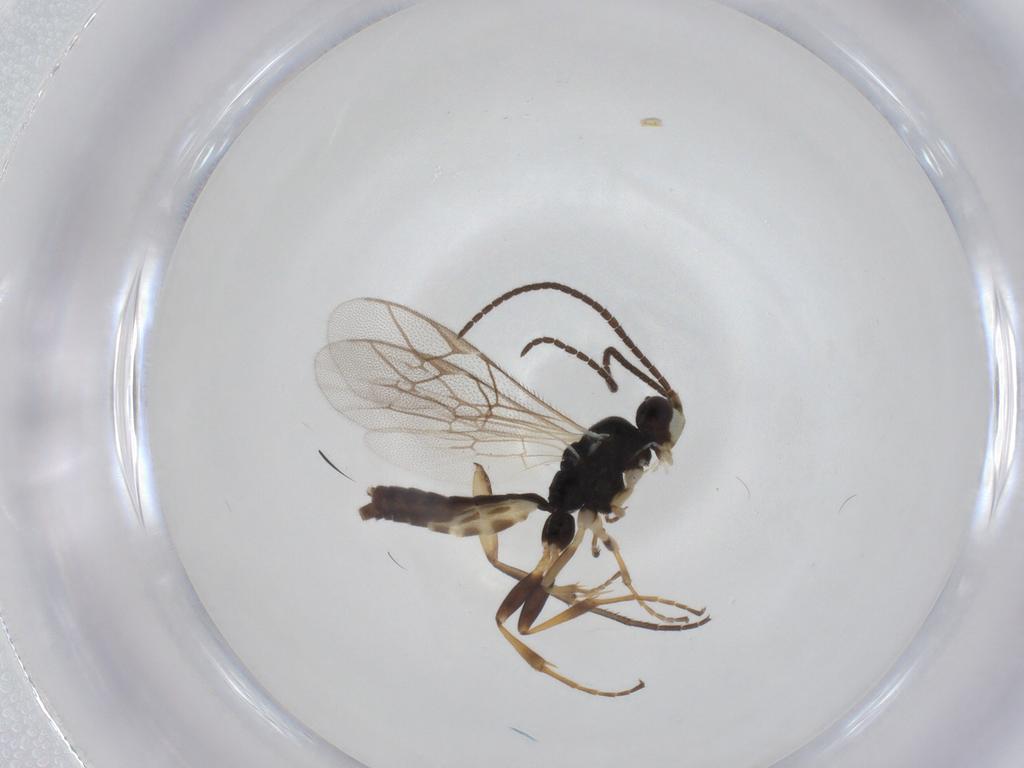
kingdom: Animalia
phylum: Arthropoda
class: Insecta
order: Hymenoptera
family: Ichneumonidae
